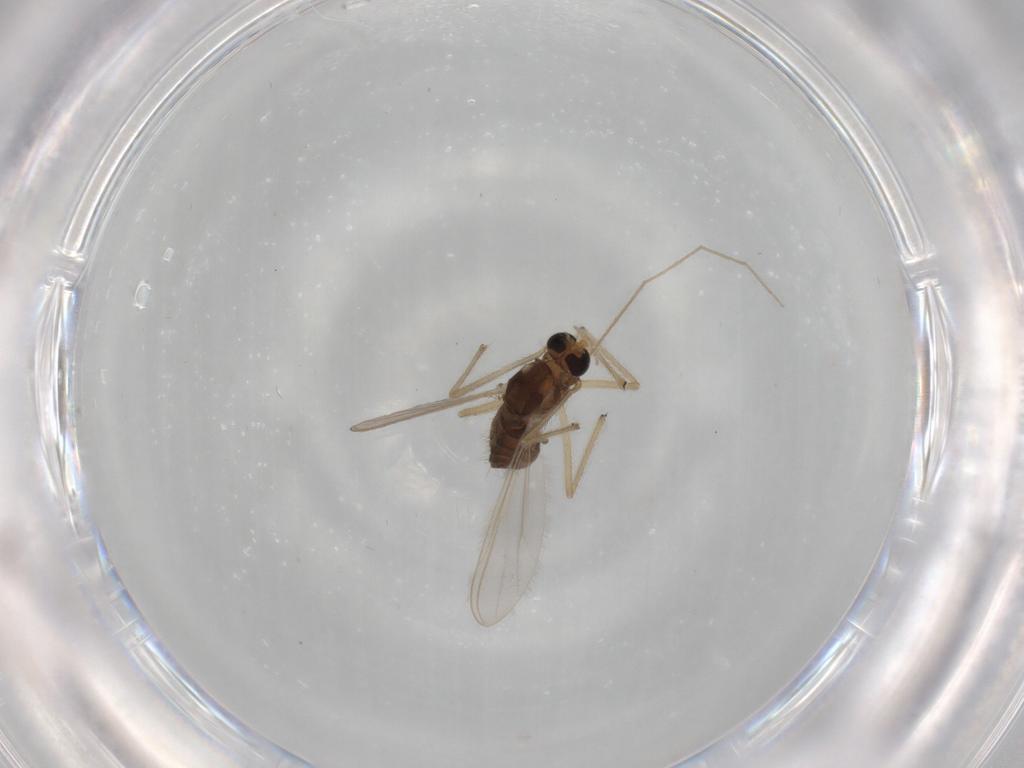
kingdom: Animalia
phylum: Arthropoda
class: Insecta
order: Diptera
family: Chironomidae
